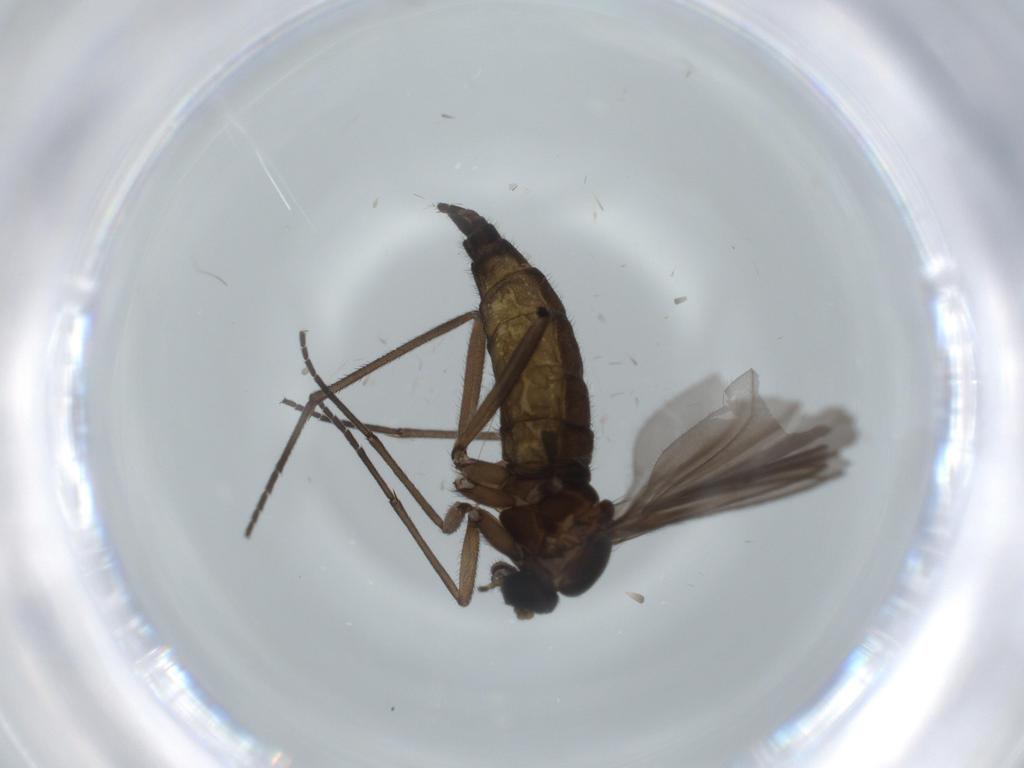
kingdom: Animalia
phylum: Arthropoda
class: Insecta
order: Diptera
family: Sciaridae
